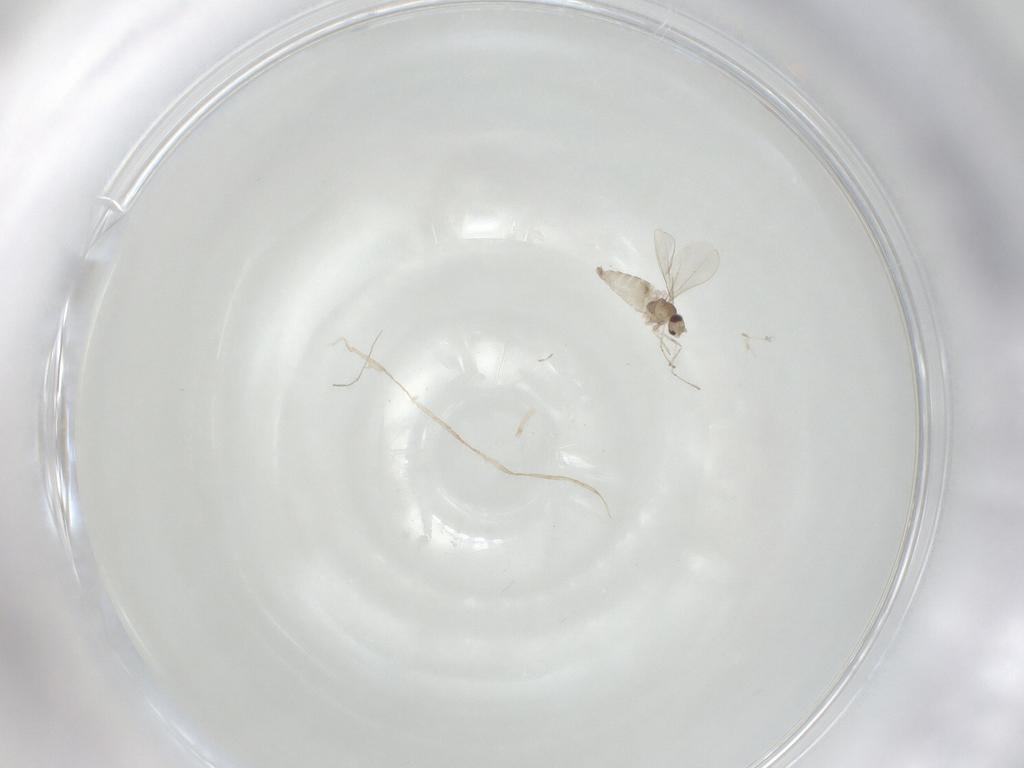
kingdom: Animalia
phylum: Arthropoda
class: Insecta
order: Diptera
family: Cecidomyiidae
